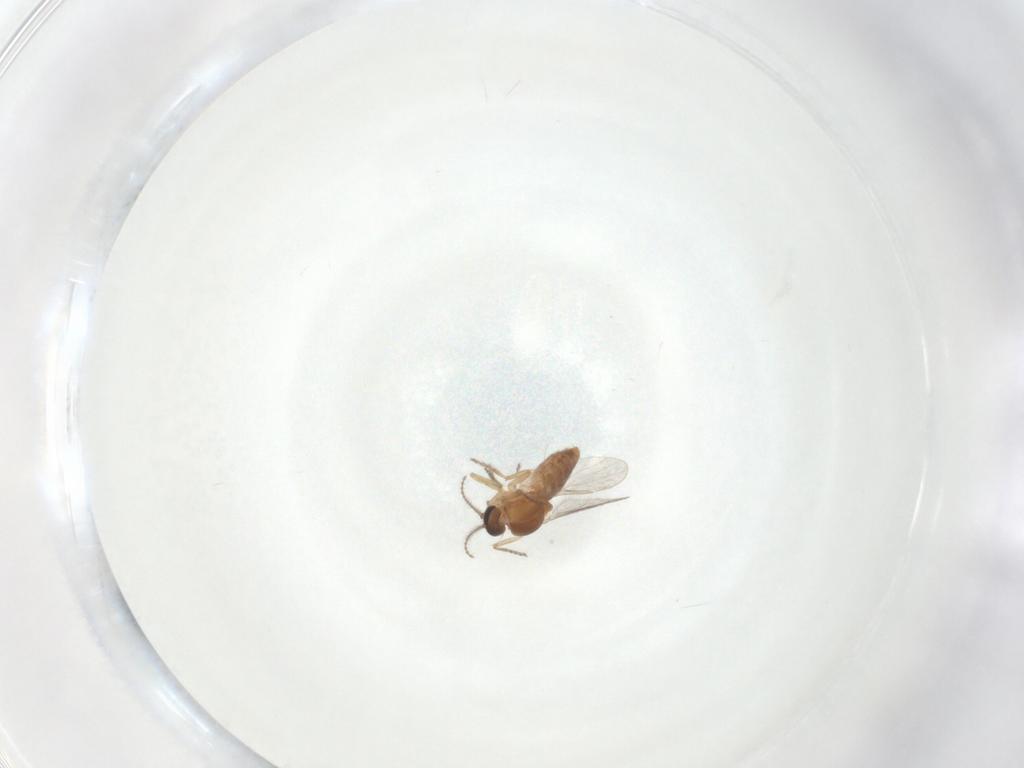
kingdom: Animalia
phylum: Arthropoda
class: Insecta
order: Diptera
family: Ceratopogonidae
